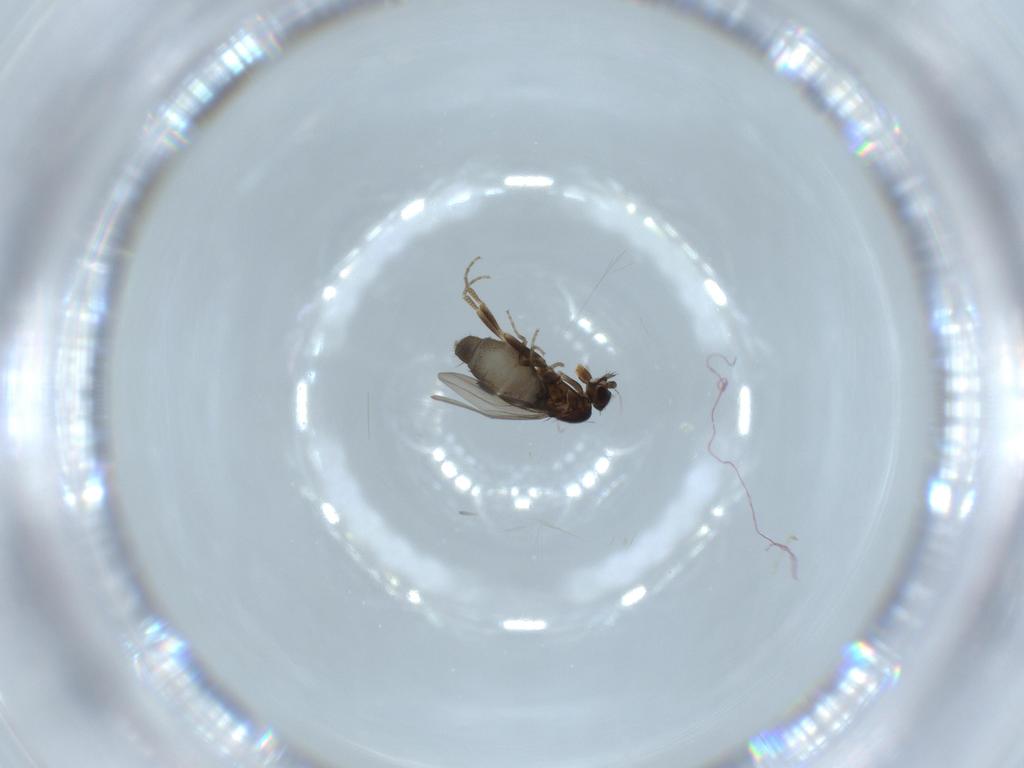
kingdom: Animalia
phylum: Arthropoda
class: Insecta
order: Diptera
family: Phoridae
